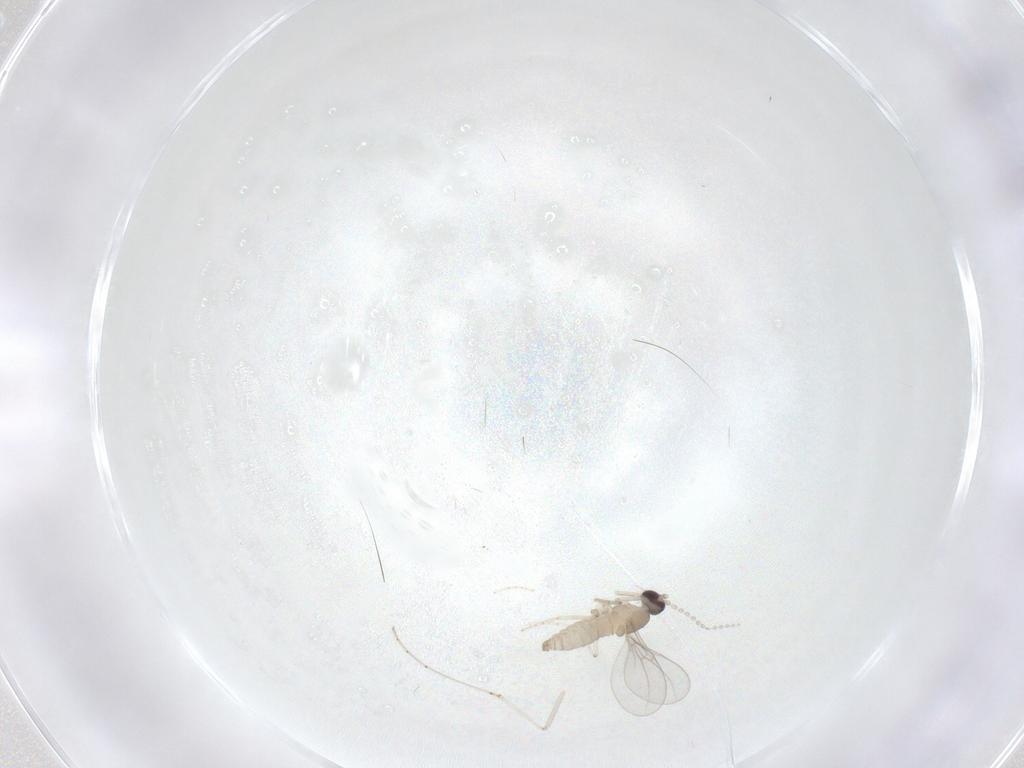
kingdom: Animalia
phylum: Arthropoda
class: Insecta
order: Diptera
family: Cecidomyiidae
